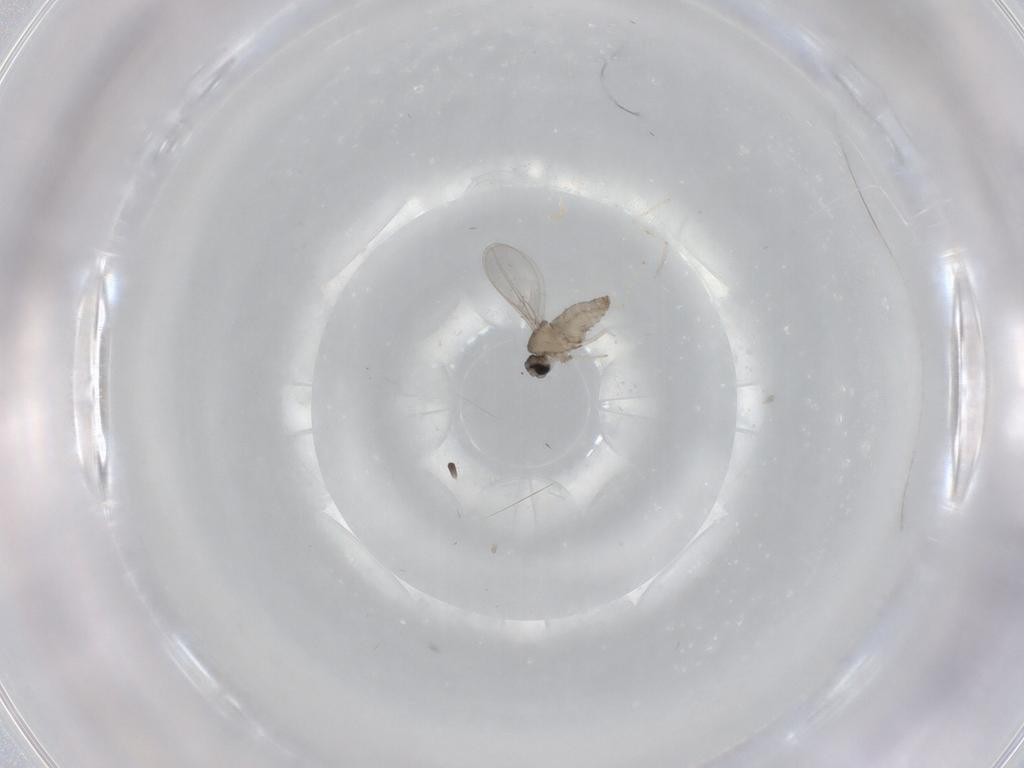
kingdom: Animalia
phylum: Arthropoda
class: Insecta
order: Diptera
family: Cecidomyiidae
